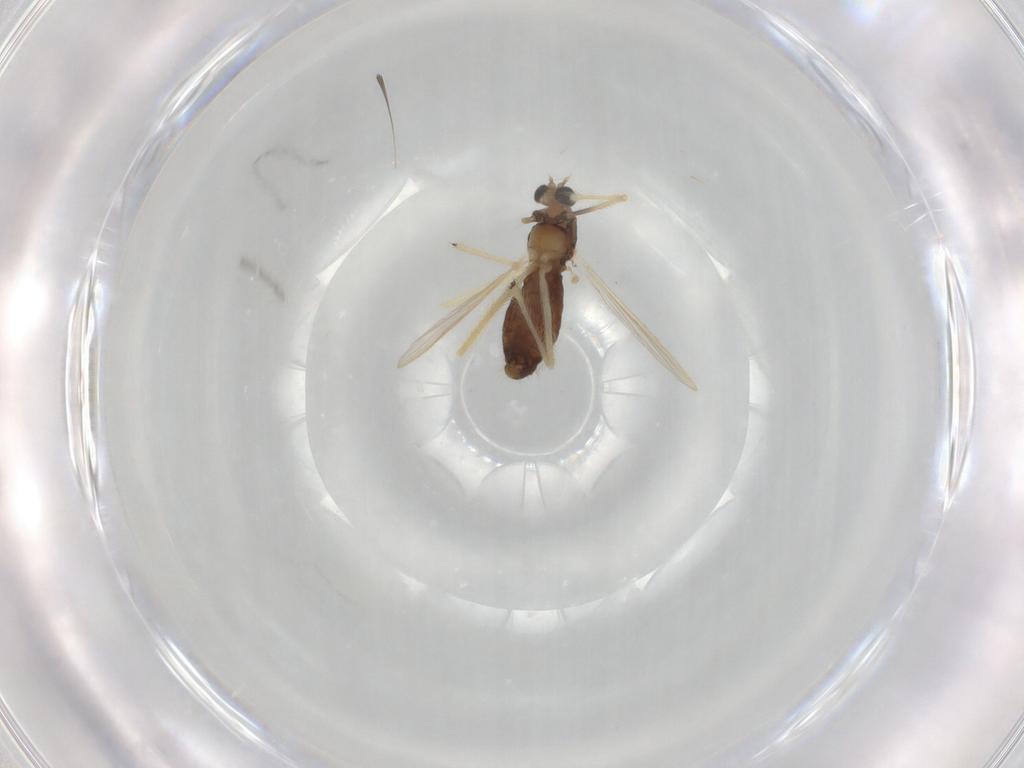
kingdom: Animalia
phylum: Arthropoda
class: Insecta
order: Diptera
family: Chironomidae
